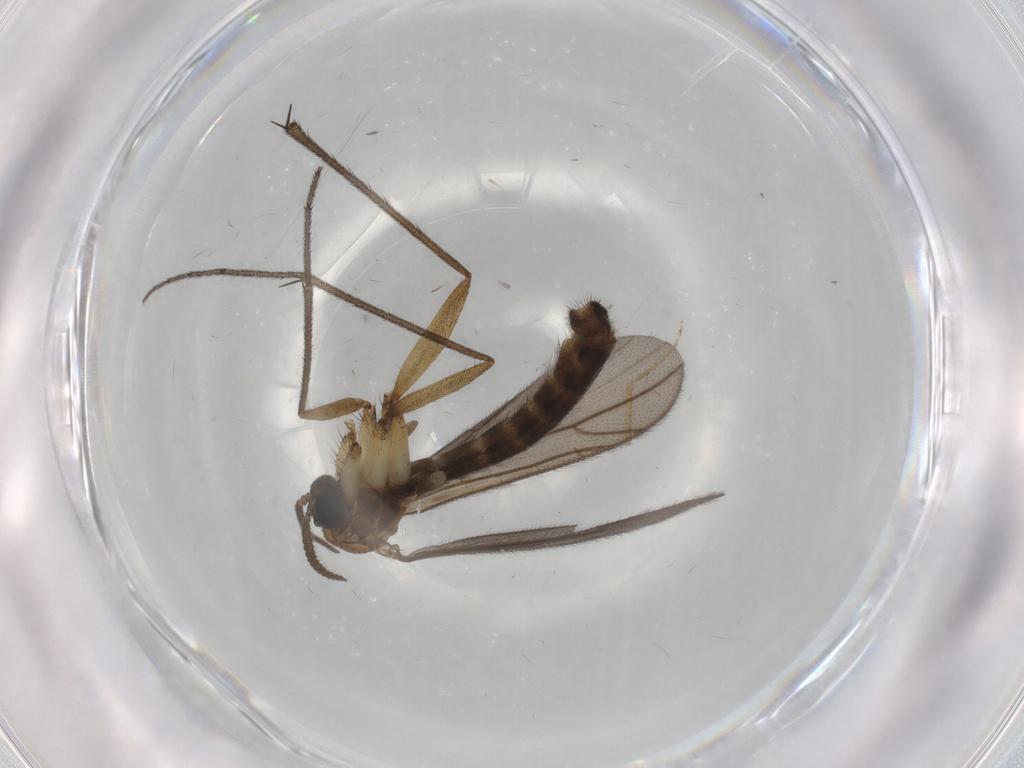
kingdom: Animalia
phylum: Arthropoda
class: Insecta
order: Diptera
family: Ditomyiidae
